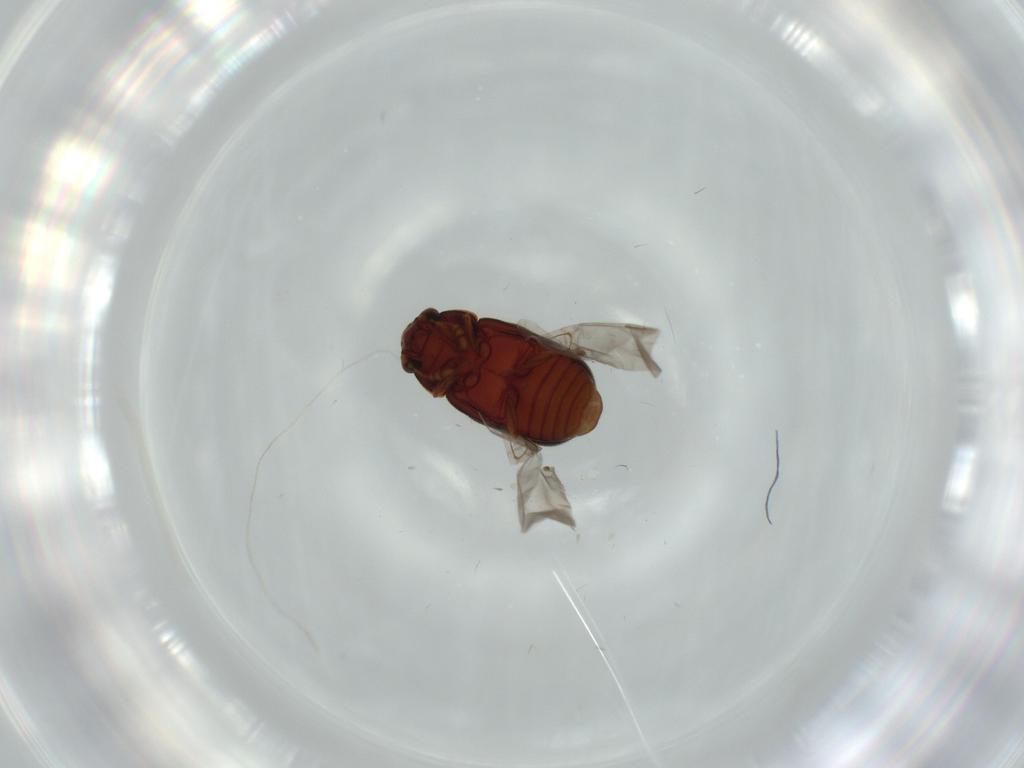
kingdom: Animalia
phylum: Arthropoda
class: Insecta
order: Coleoptera
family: Sphindidae
